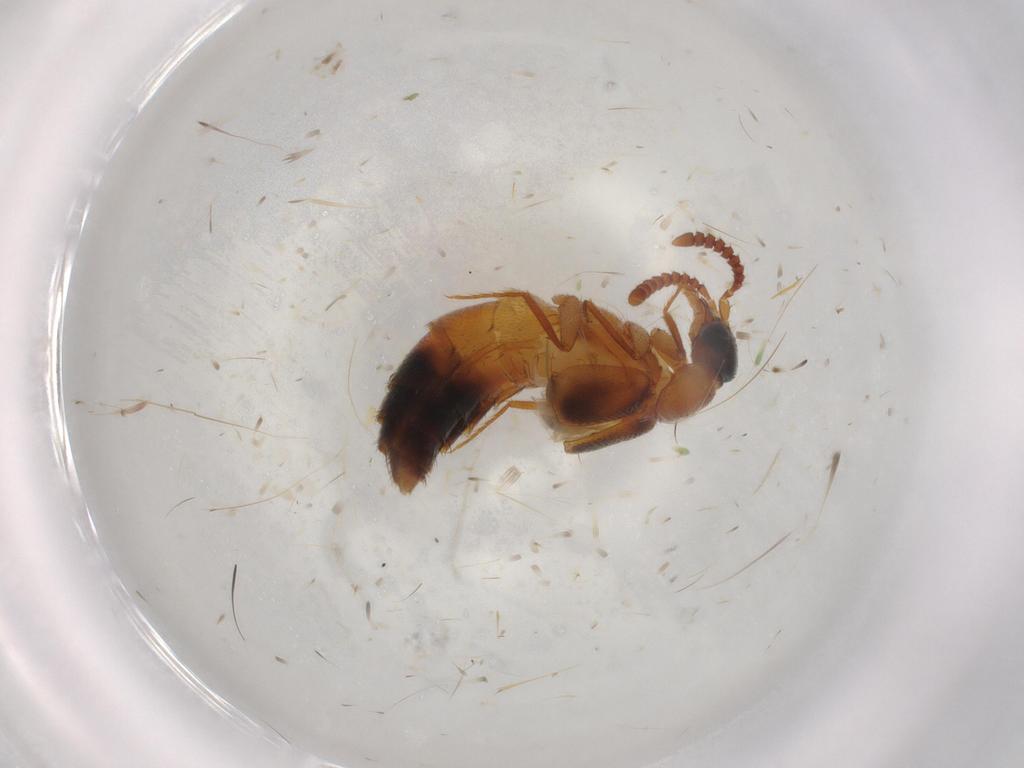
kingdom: Animalia
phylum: Arthropoda
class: Insecta
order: Coleoptera
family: Staphylinidae
